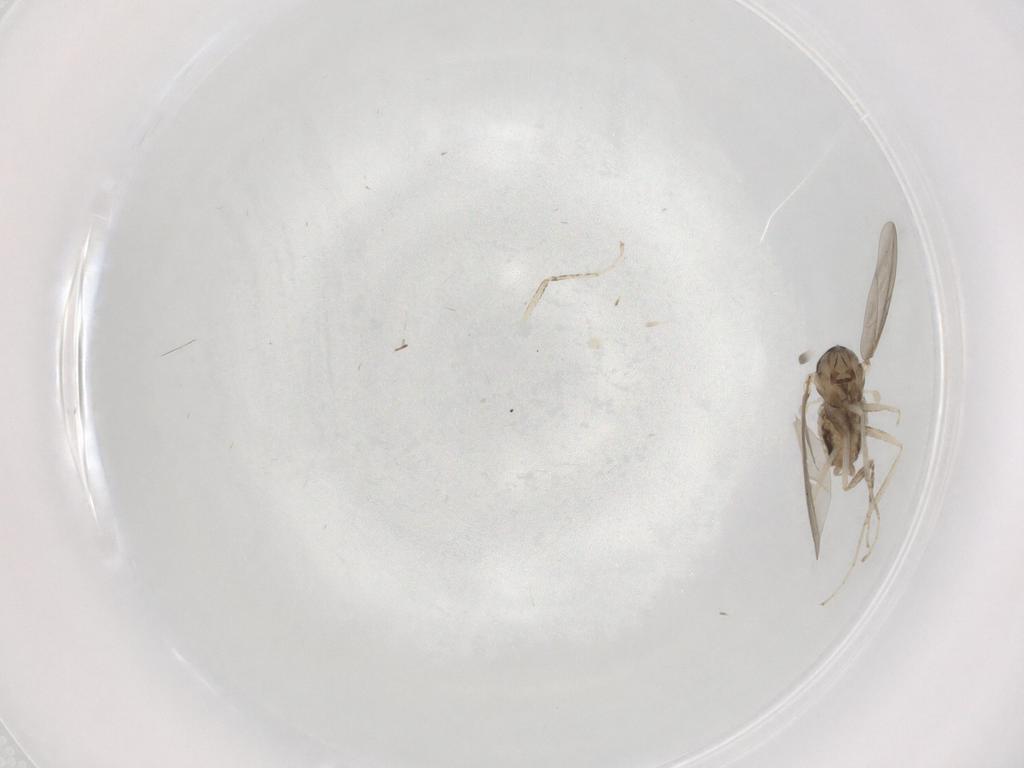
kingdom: Animalia
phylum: Arthropoda
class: Insecta
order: Diptera
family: Cecidomyiidae
